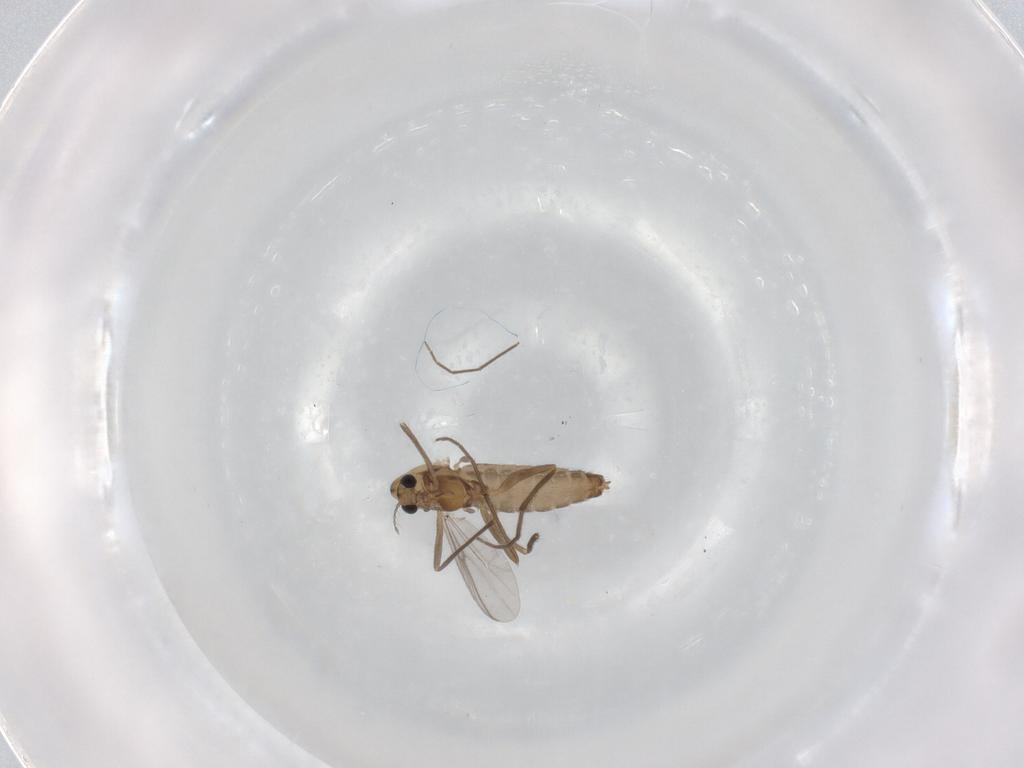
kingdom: Animalia
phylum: Arthropoda
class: Insecta
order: Diptera
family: Chironomidae
